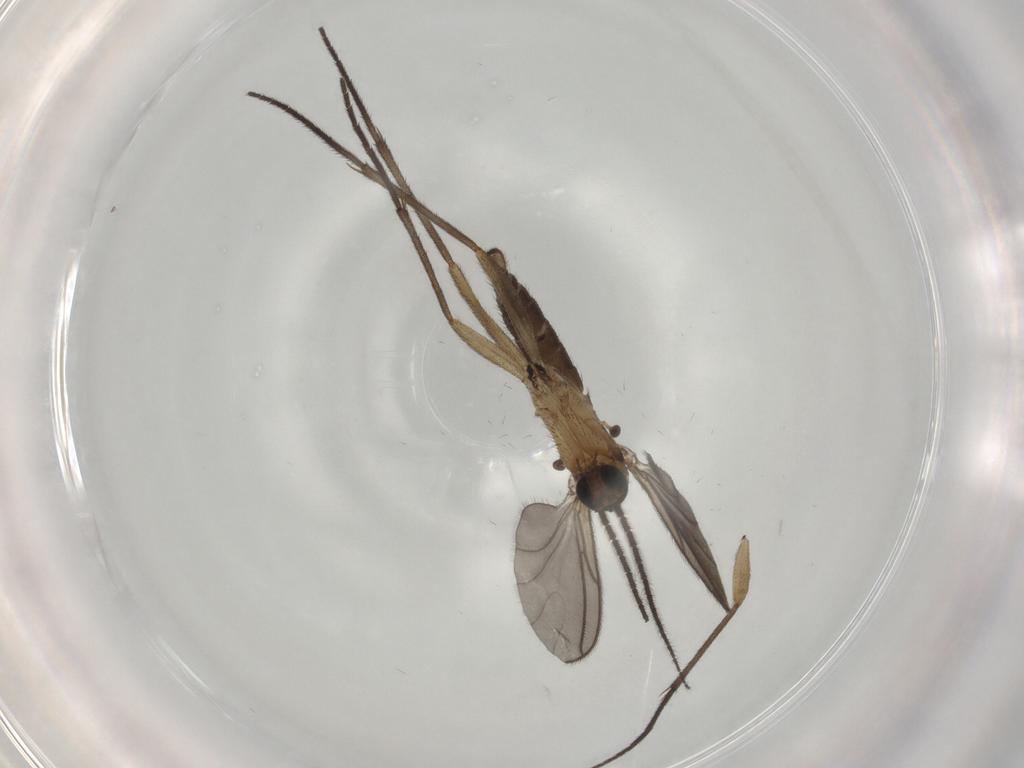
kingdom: Animalia
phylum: Arthropoda
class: Insecta
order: Diptera
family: Sciaridae
